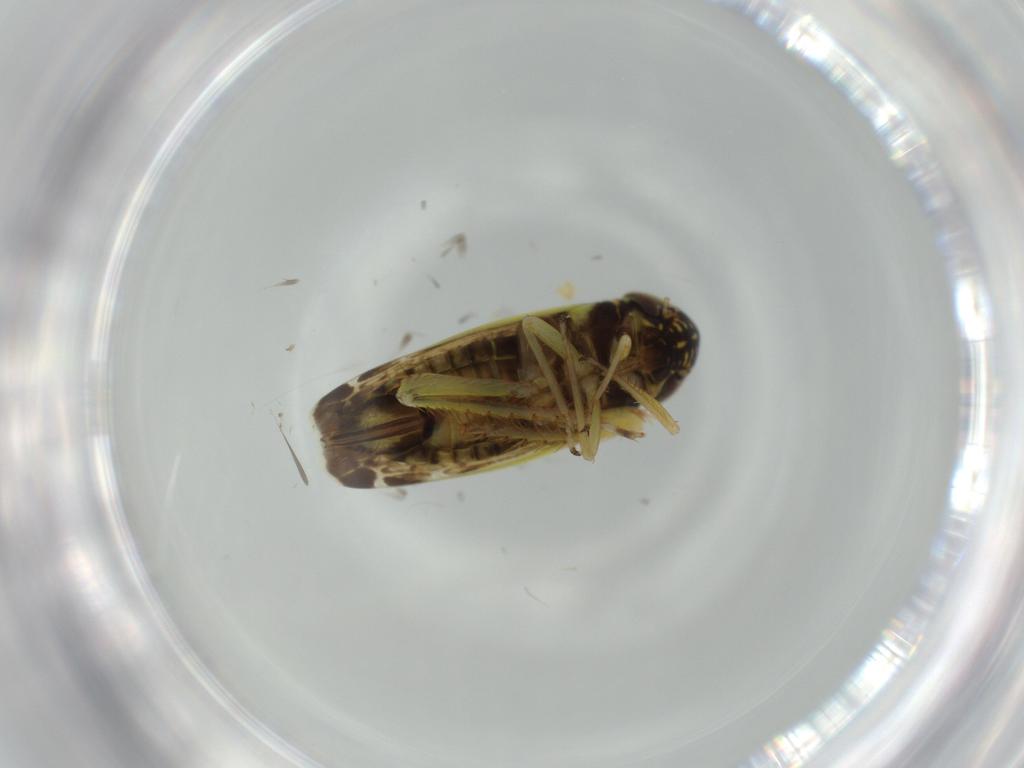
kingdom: Animalia
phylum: Arthropoda
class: Insecta
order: Hemiptera
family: Cicadellidae
